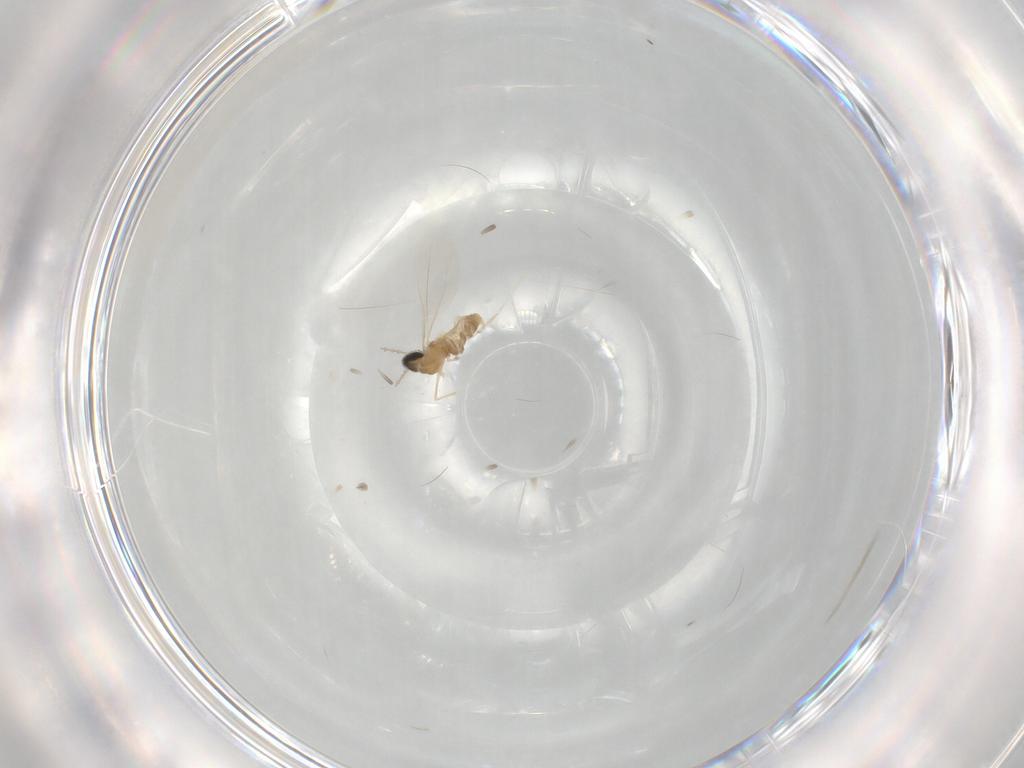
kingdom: Animalia
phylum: Arthropoda
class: Insecta
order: Diptera
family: Cecidomyiidae
